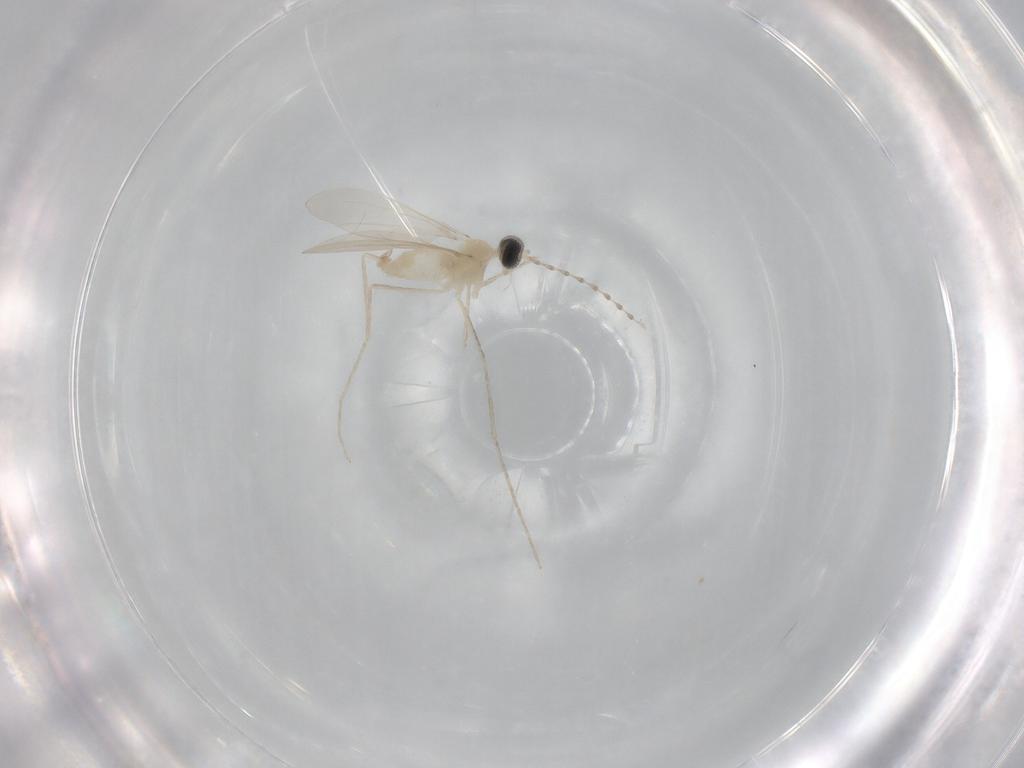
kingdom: Animalia
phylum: Arthropoda
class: Insecta
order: Diptera
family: Cecidomyiidae
